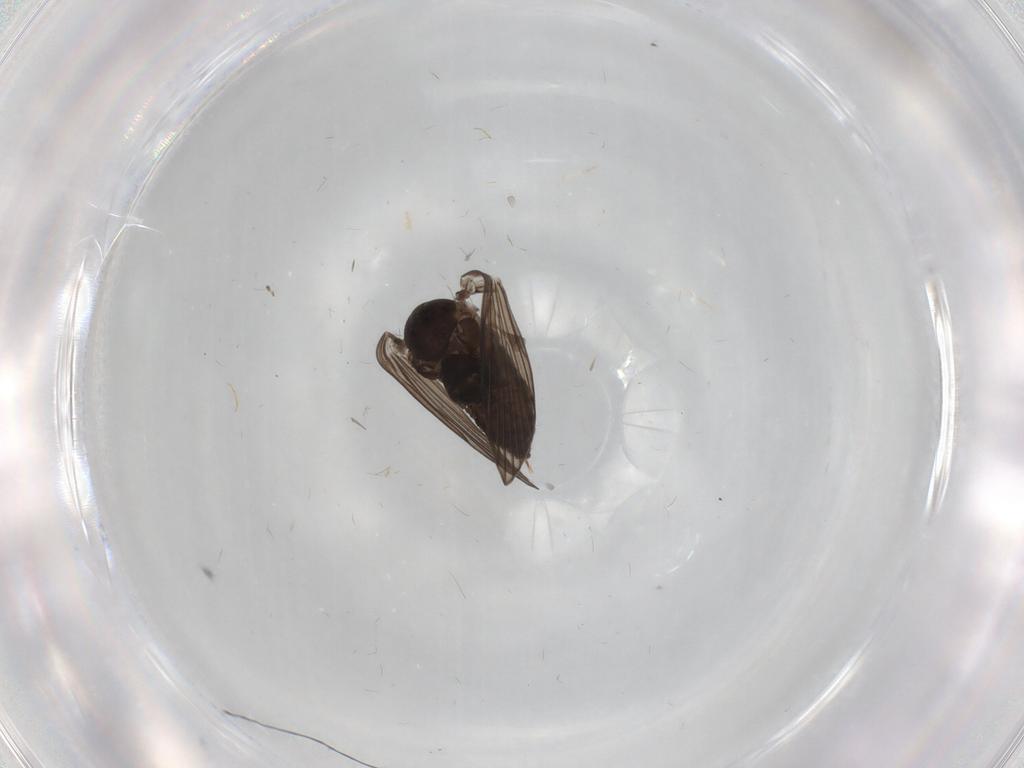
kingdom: Animalia
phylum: Arthropoda
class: Insecta
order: Diptera
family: Psychodidae
